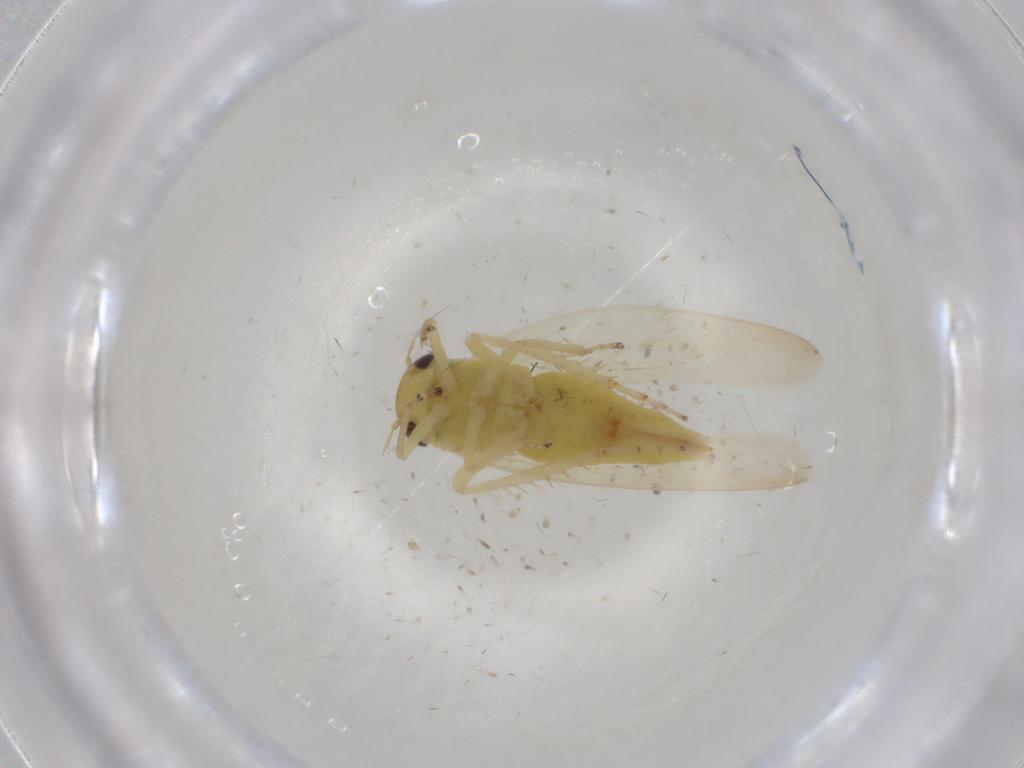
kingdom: Animalia
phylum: Arthropoda
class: Insecta
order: Hemiptera
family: Cicadellidae
